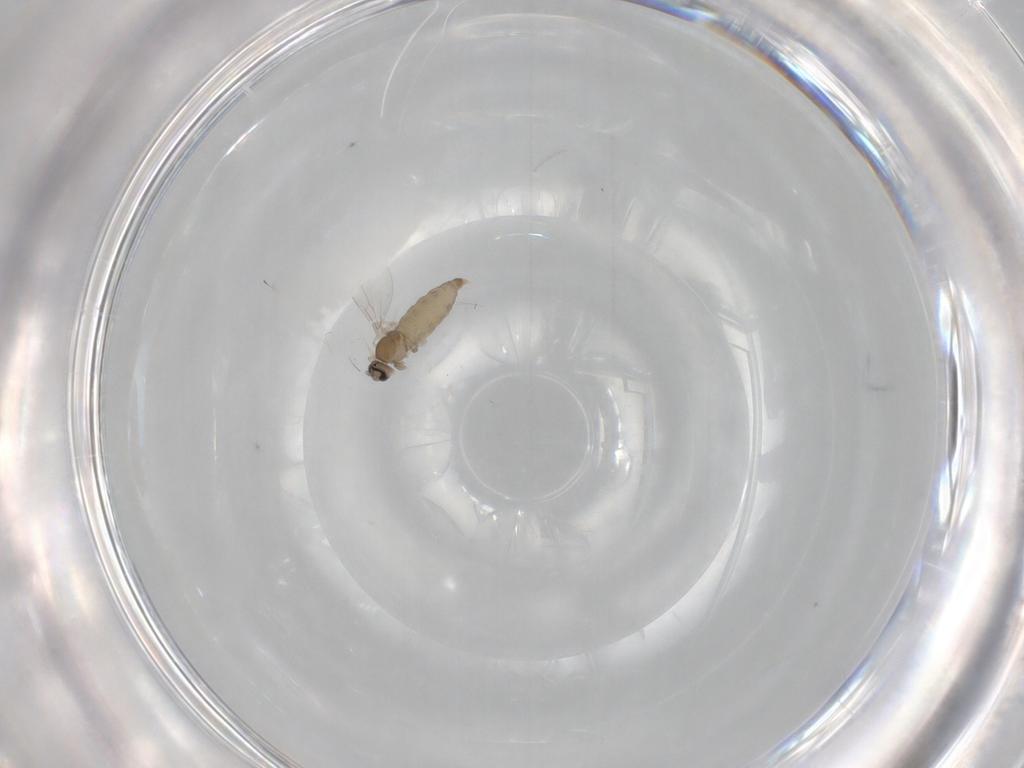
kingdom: Animalia
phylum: Arthropoda
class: Insecta
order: Diptera
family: Cecidomyiidae
